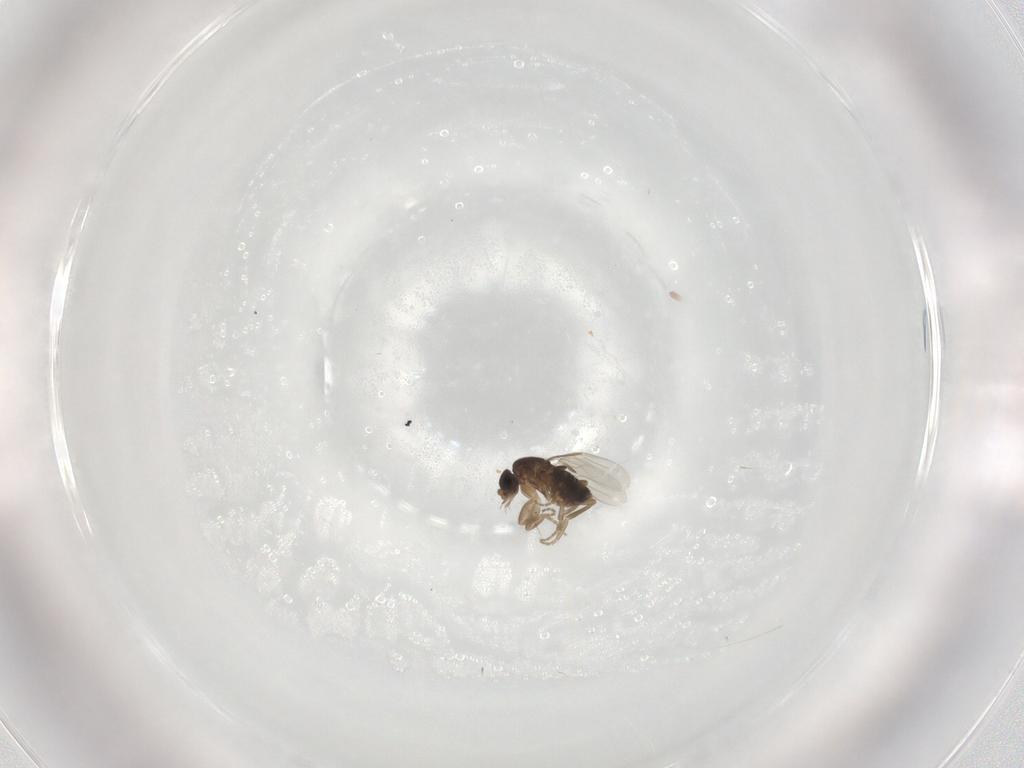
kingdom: Animalia
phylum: Arthropoda
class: Insecta
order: Diptera
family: Phoridae
